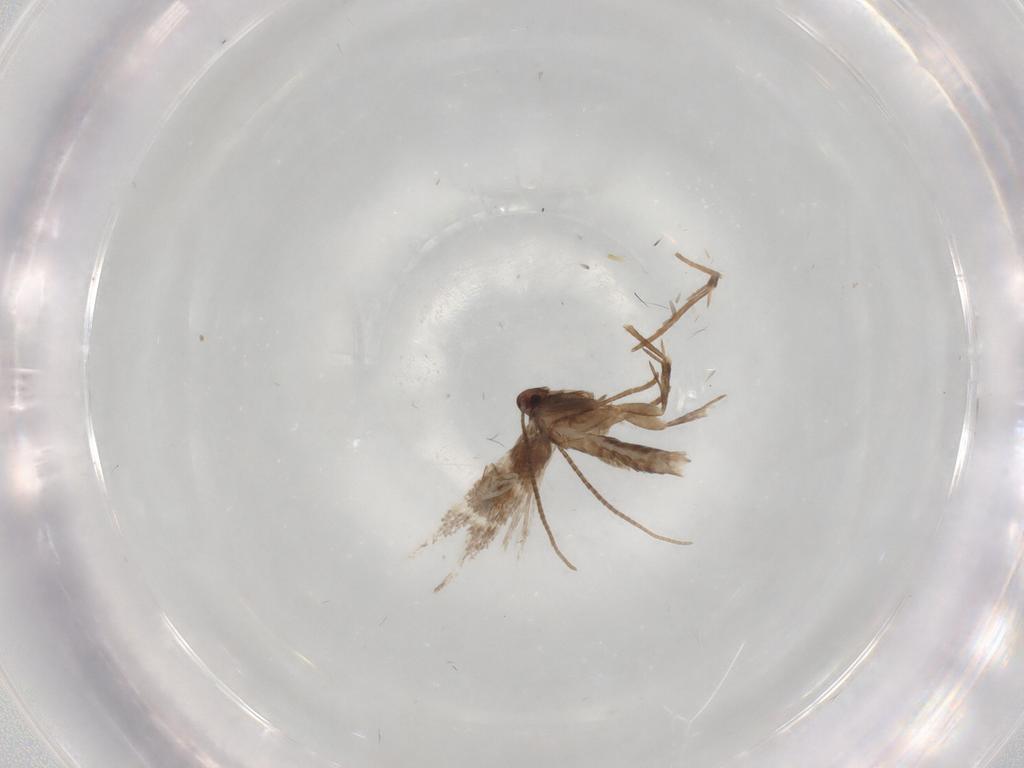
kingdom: Animalia
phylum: Arthropoda
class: Insecta
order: Lepidoptera
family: Gracillariidae
